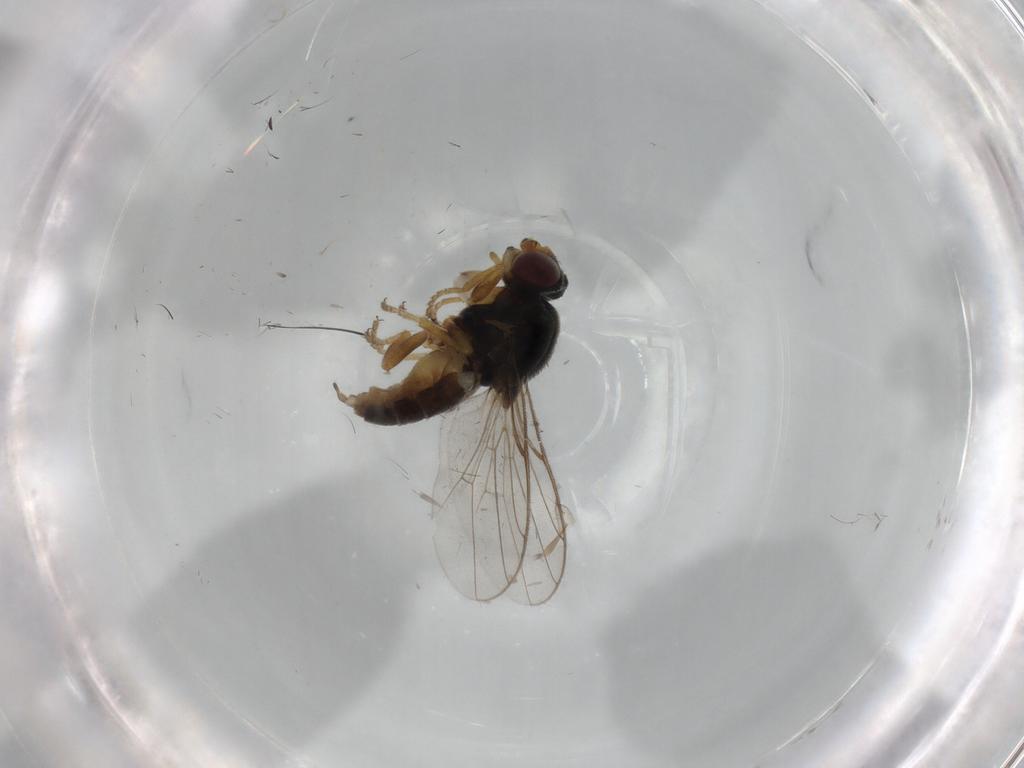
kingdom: Animalia
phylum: Arthropoda
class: Insecta
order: Diptera
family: Chloropidae
